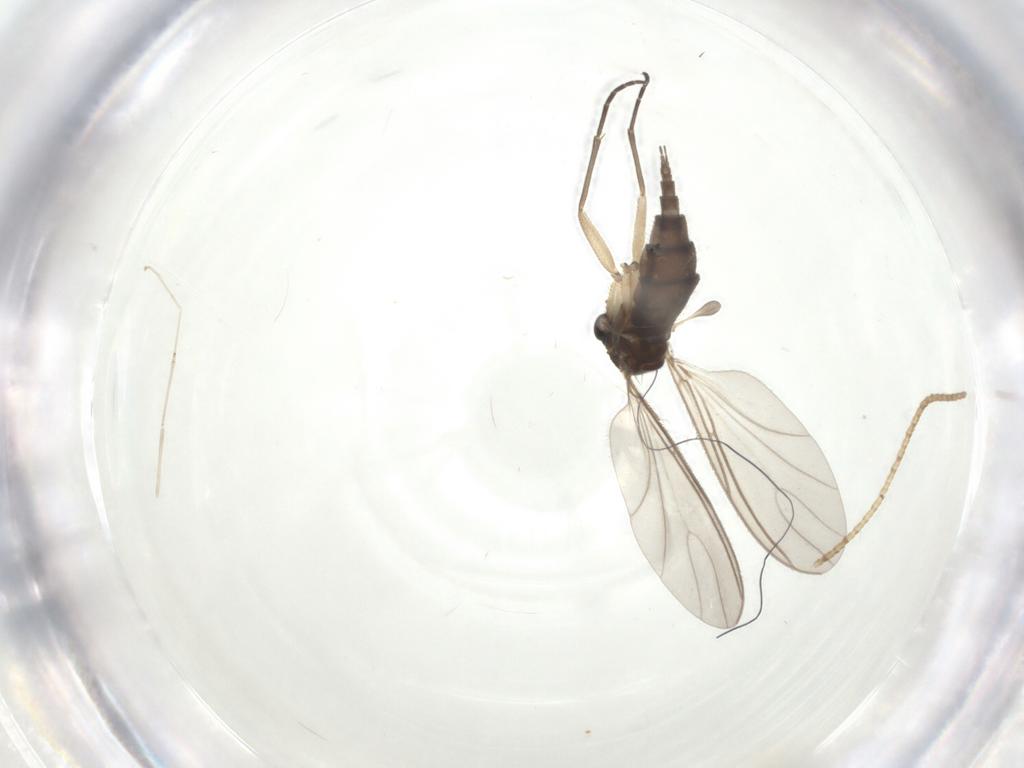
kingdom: Animalia
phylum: Arthropoda
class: Insecta
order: Diptera
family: Sciaridae
